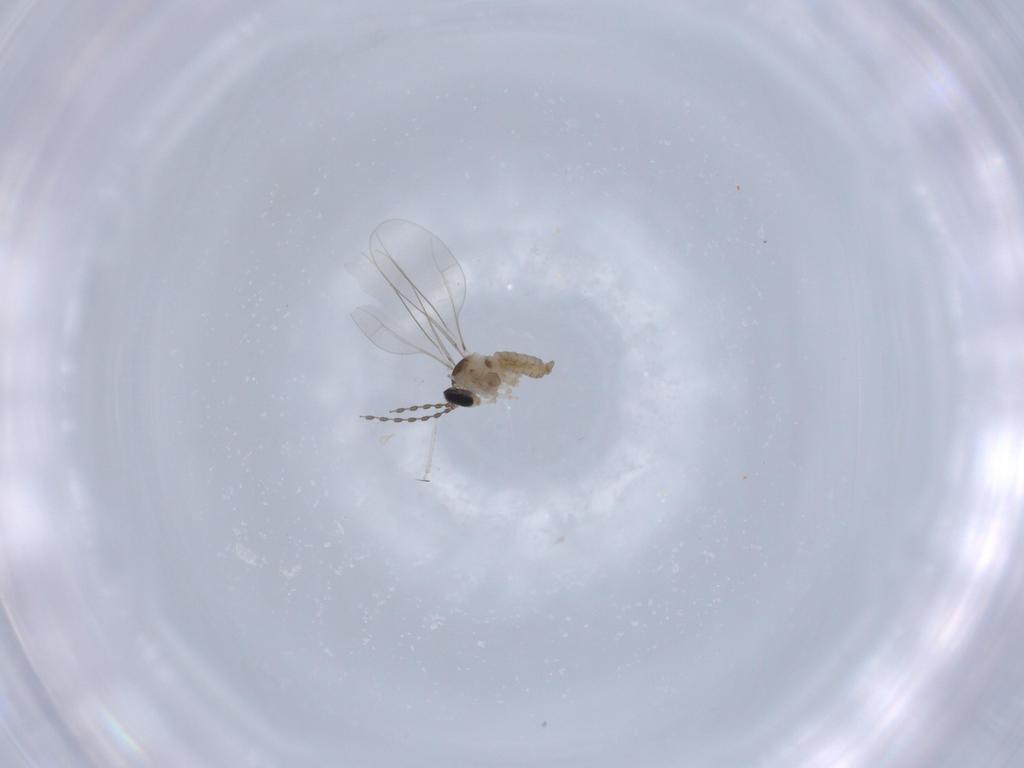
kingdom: Animalia
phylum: Arthropoda
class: Insecta
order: Diptera
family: Cecidomyiidae
